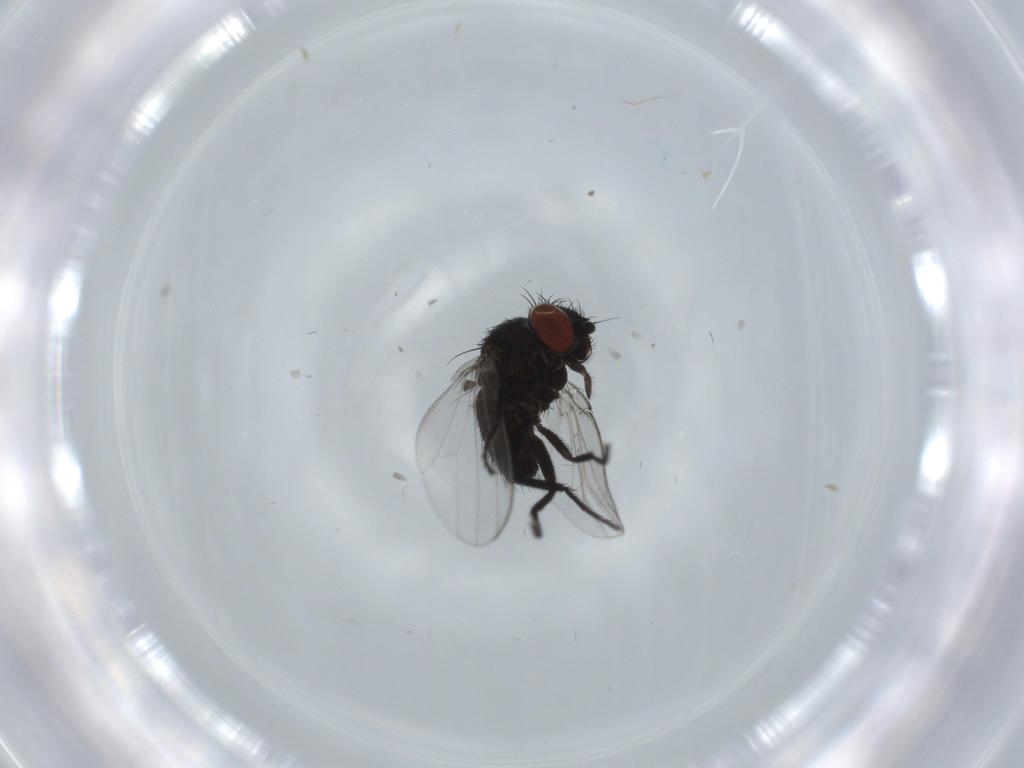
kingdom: Animalia
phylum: Arthropoda
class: Insecta
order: Diptera
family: Milichiidae
